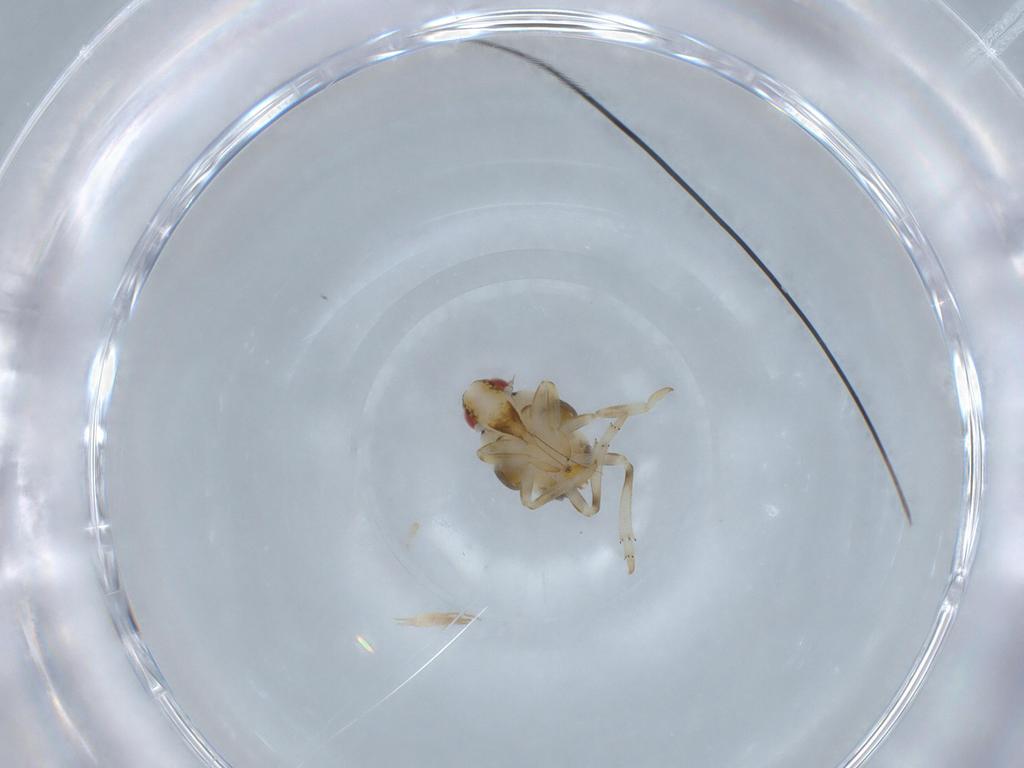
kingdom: Animalia
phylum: Arthropoda
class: Insecta
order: Hemiptera
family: Issidae
